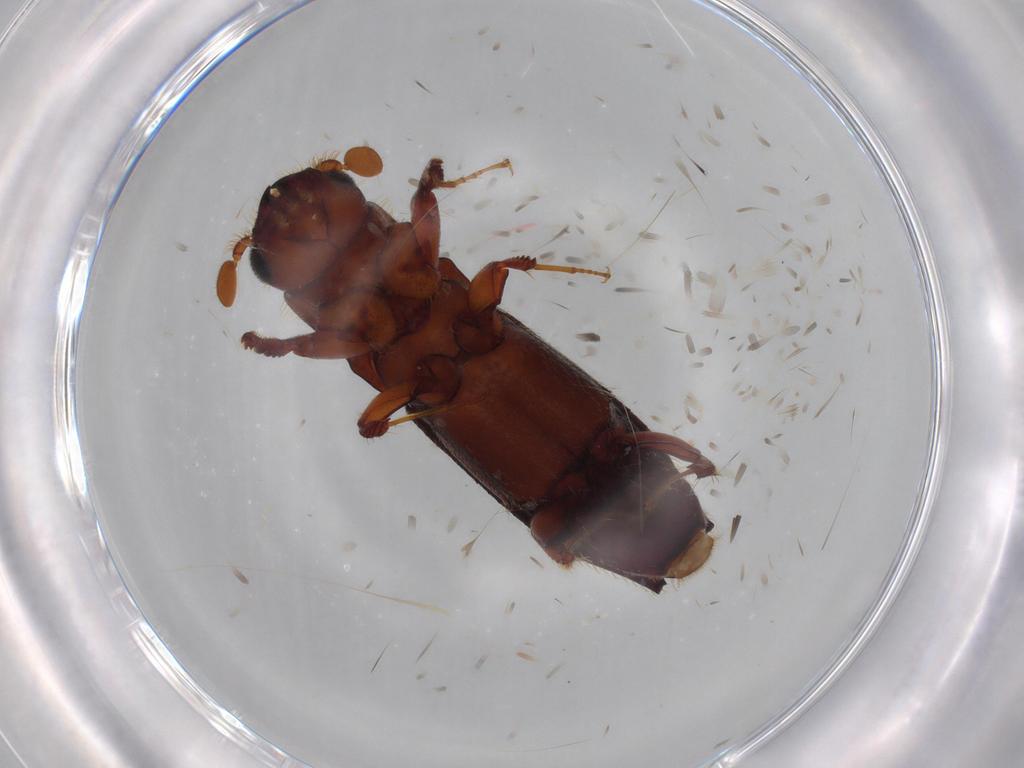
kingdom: Animalia
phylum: Arthropoda
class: Insecta
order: Coleoptera
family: Curculionidae
